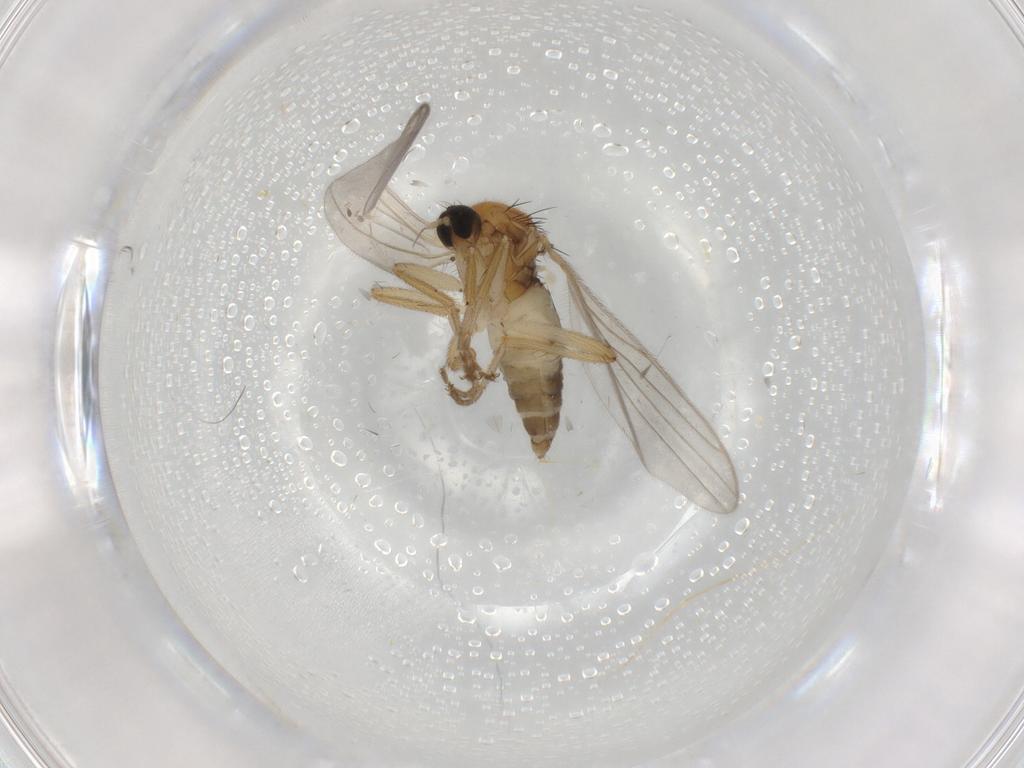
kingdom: Animalia
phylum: Arthropoda
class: Insecta
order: Diptera
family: Hybotidae
